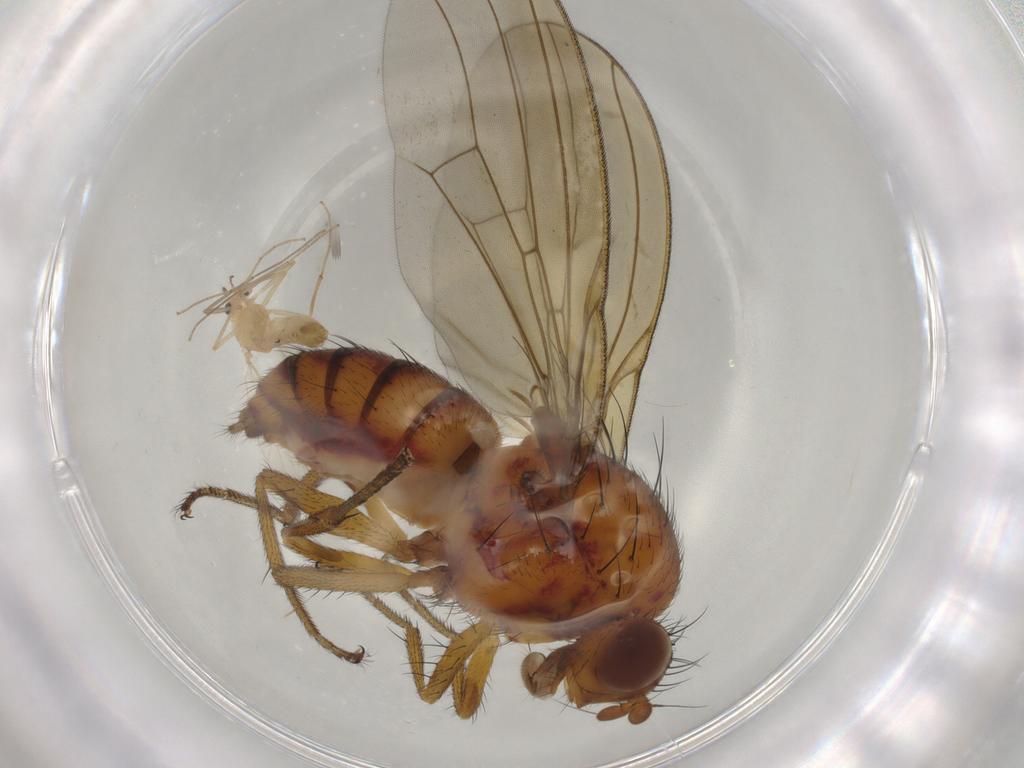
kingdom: Animalia
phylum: Arthropoda
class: Insecta
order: Diptera
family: Chironomidae
